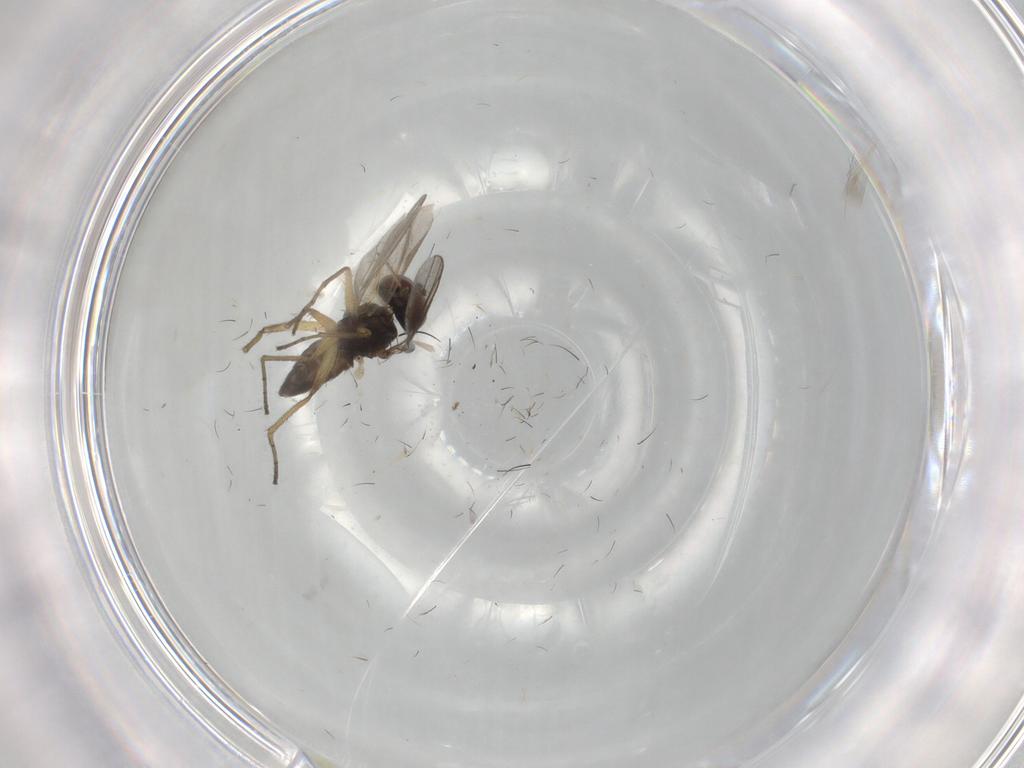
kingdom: Animalia
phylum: Arthropoda
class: Insecta
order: Diptera
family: Dolichopodidae
